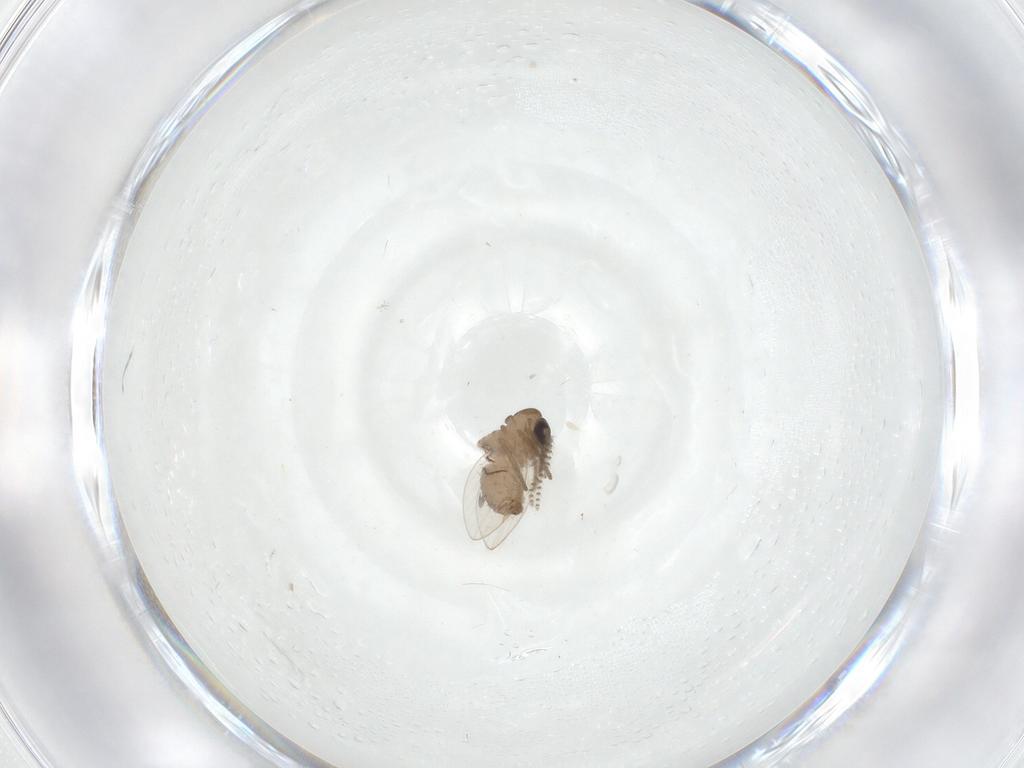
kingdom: Animalia
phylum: Arthropoda
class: Insecta
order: Diptera
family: Psychodidae
